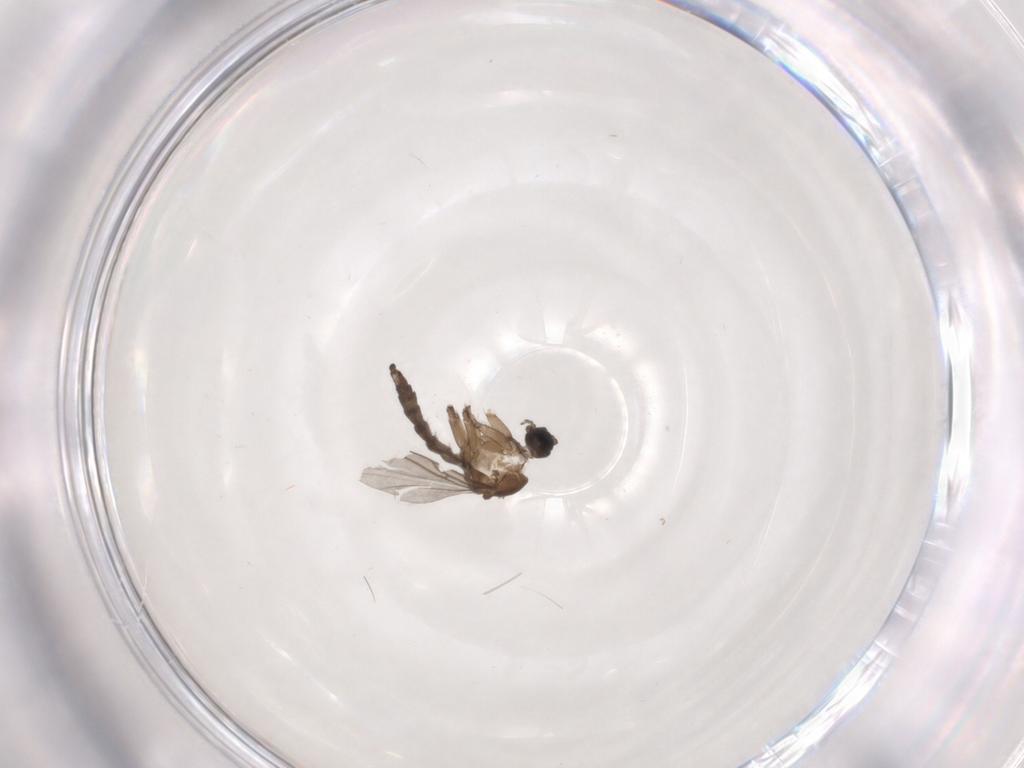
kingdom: Animalia
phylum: Arthropoda
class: Insecta
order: Diptera
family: Sciaridae
